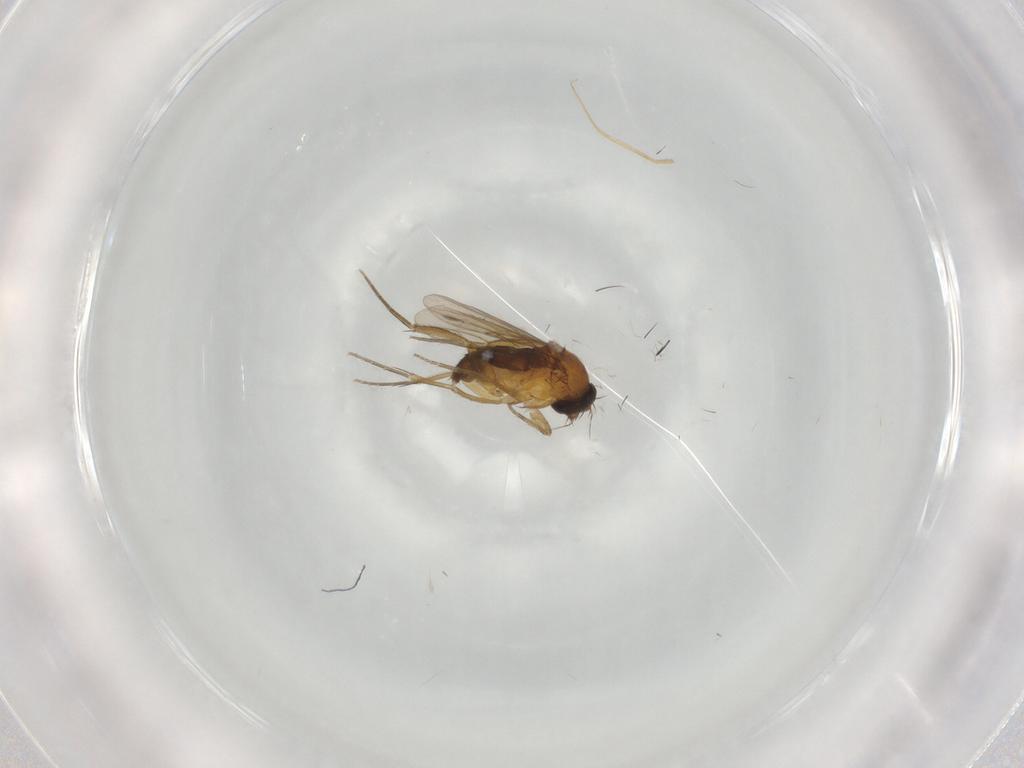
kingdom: Animalia
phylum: Arthropoda
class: Insecta
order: Diptera
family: Phoridae
